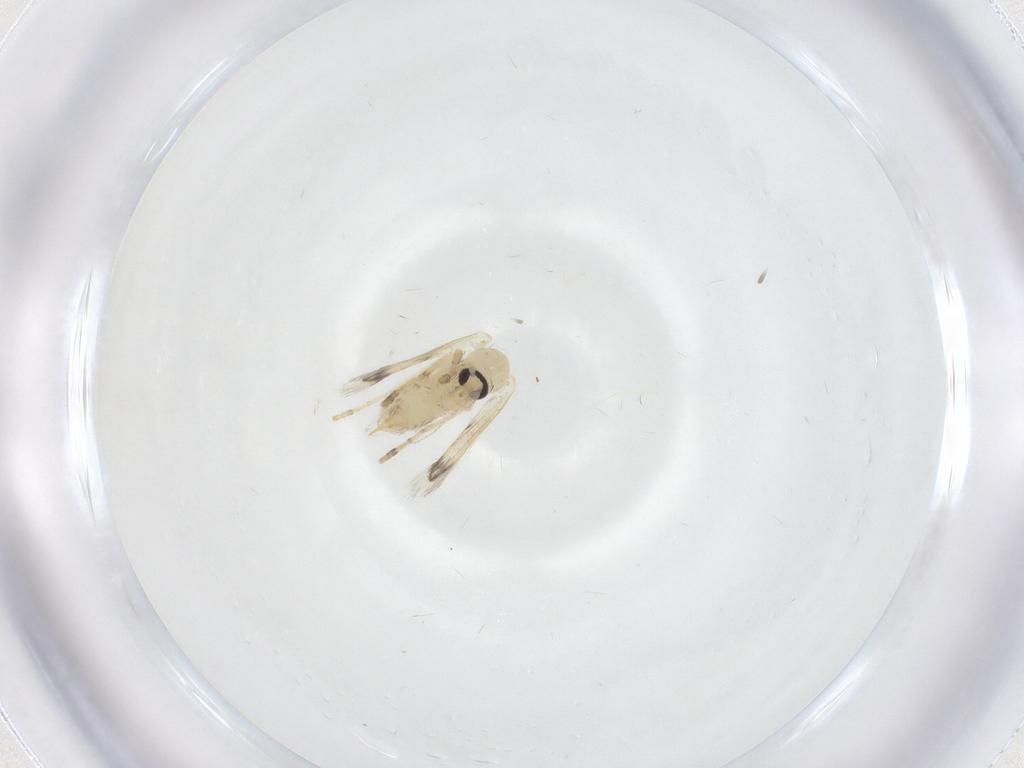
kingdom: Animalia
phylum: Arthropoda
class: Insecta
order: Diptera
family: Psychodidae
